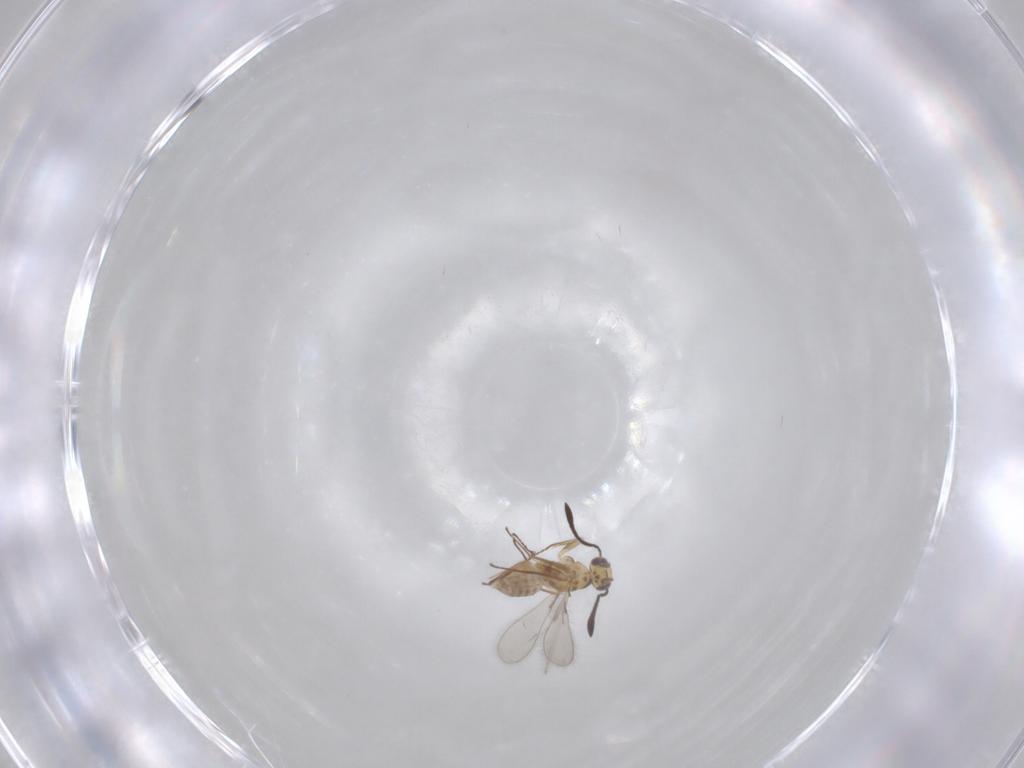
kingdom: Animalia
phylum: Arthropoda
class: Insecta
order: Hymenoptera
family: Mymaridae
